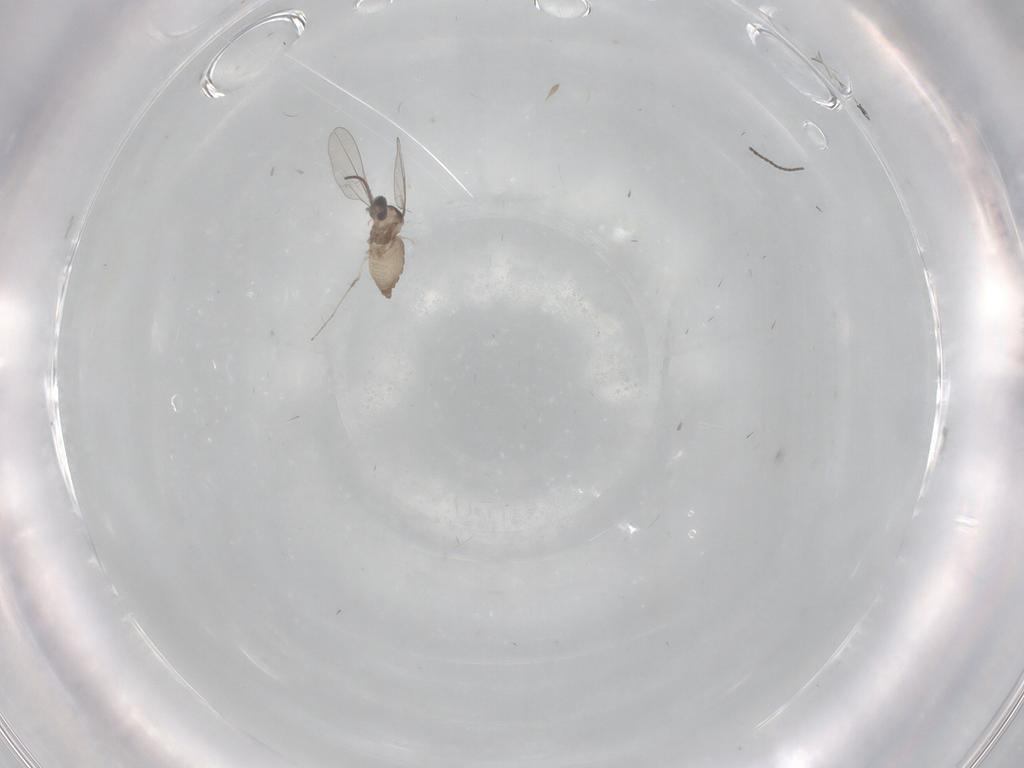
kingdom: Animalia
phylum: Arthropoda
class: Insecta
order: Diptera
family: Cecidomyiidae
